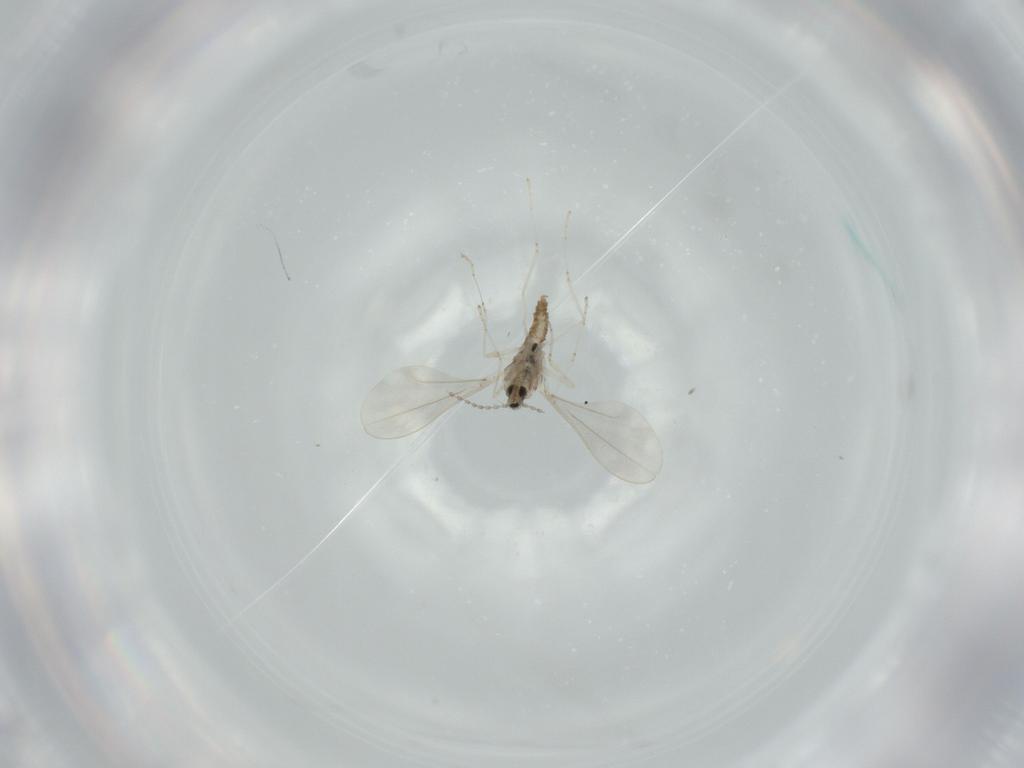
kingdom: Animalia
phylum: Arthropoda
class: Insecta
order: Diptera
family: Cecidomyiidae
